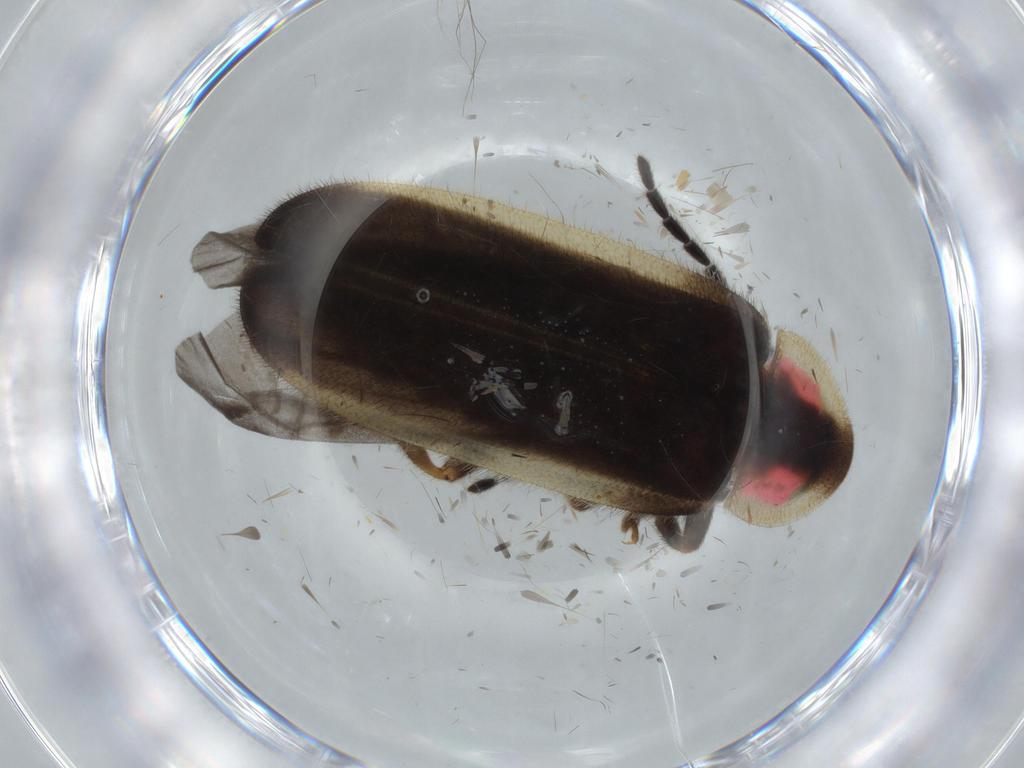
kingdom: Animalia
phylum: Arthropoda
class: Insecta
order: Coleoptera
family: Lampyridae
